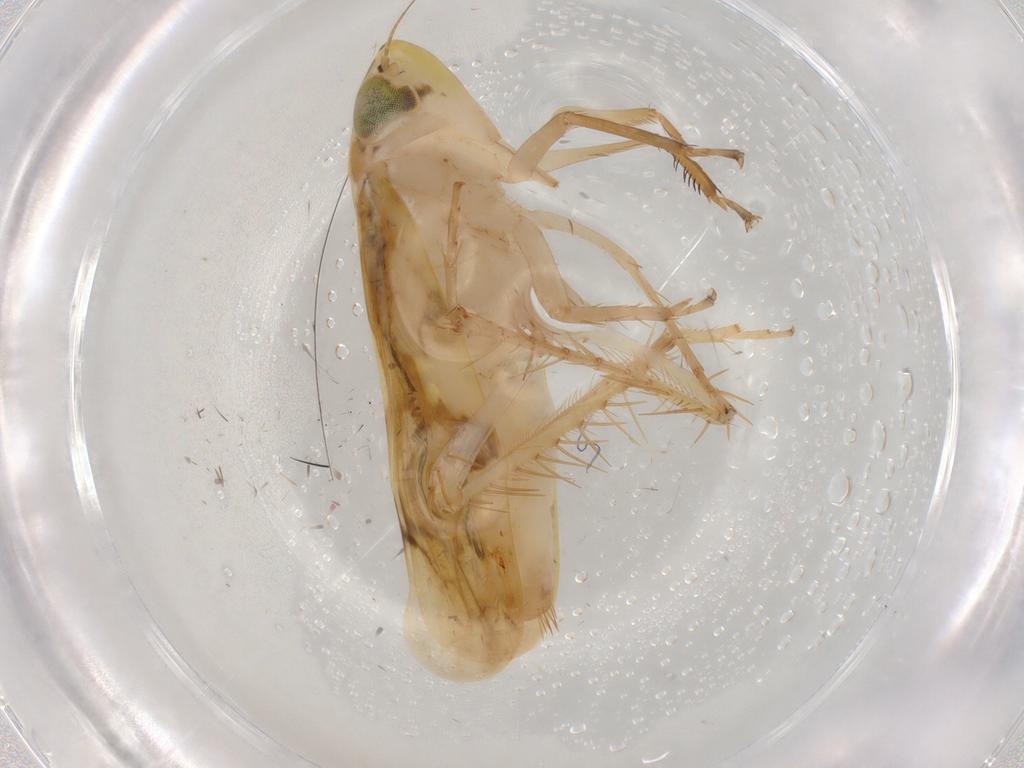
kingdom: Animalia
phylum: Arthropoda
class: Insecta
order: Hemiptera
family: Cicadellidae
